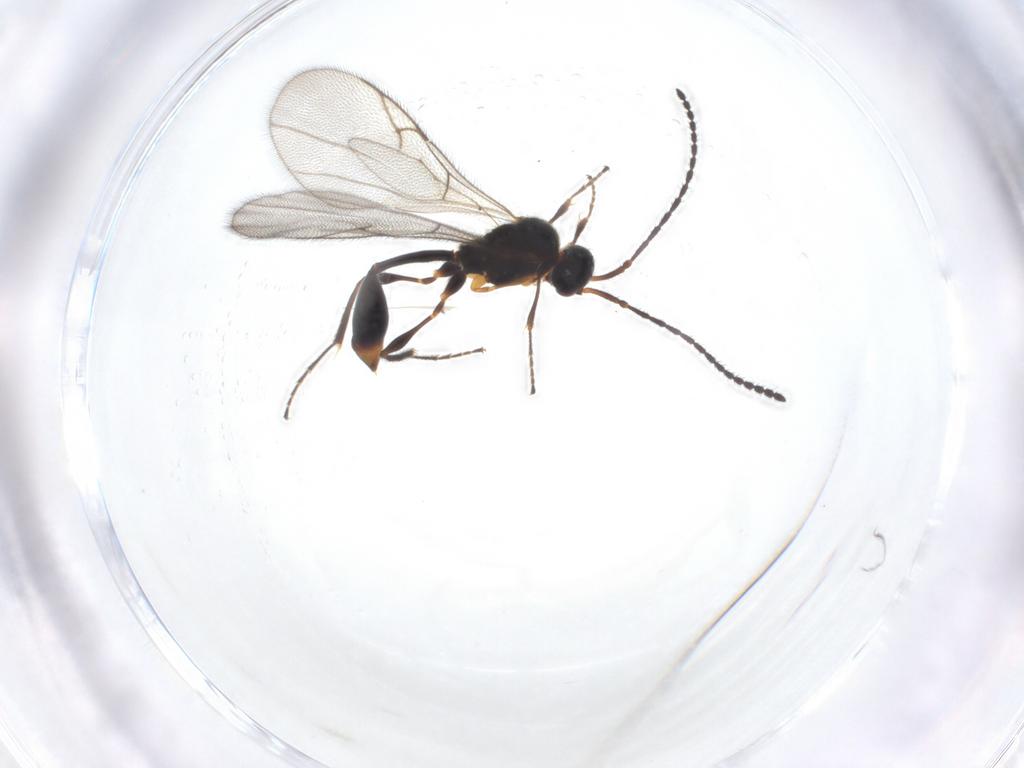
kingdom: Animalia
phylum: Arthropoda
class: Insecta
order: Hymenoptera
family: Diapriidae
